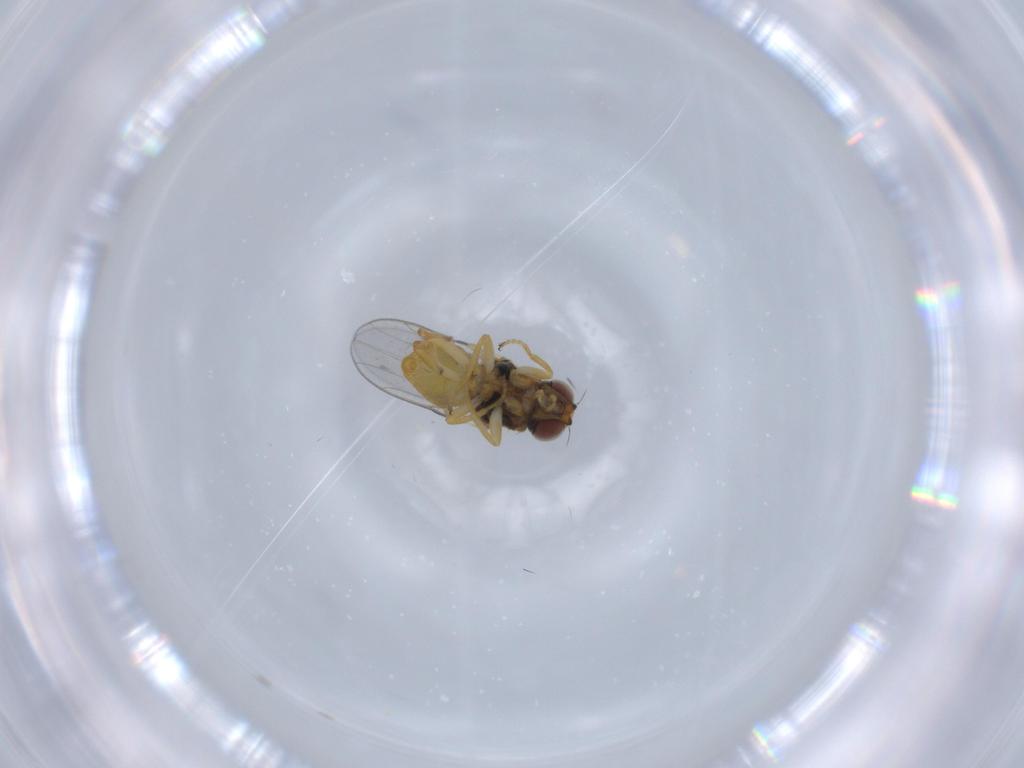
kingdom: Animalia
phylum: Arthropoda
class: Insecta
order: Diptera
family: Chloropidae
